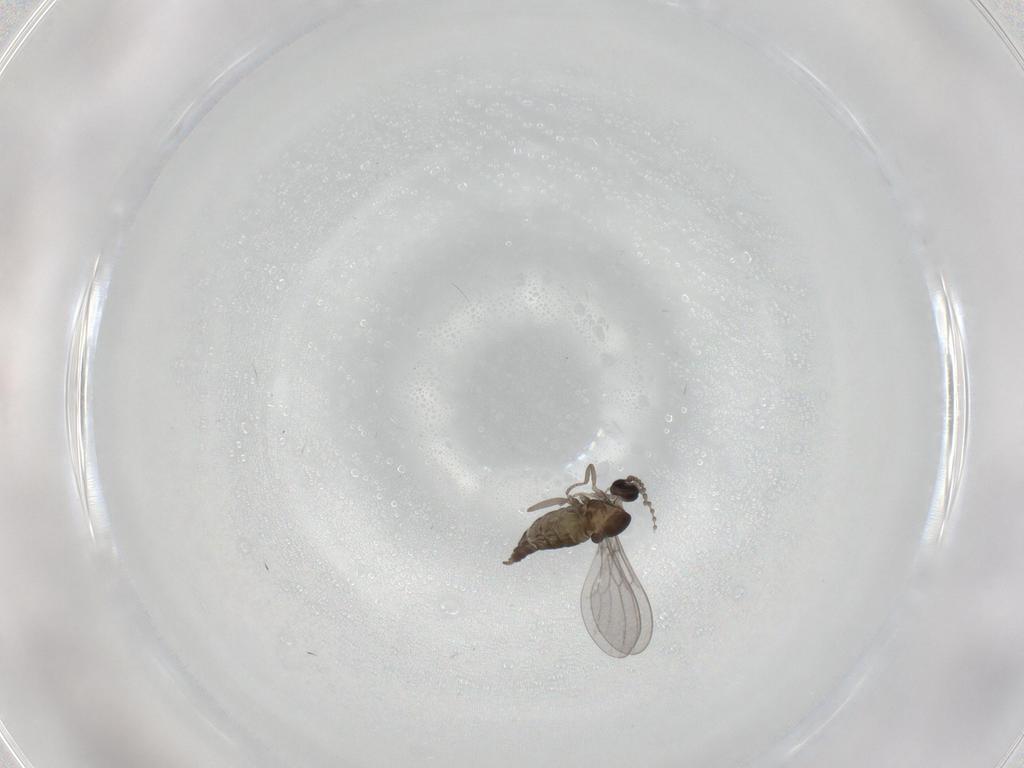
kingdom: Animalia
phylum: Arthropoda
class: Insecta
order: Diptera
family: Cecidomyiidae
